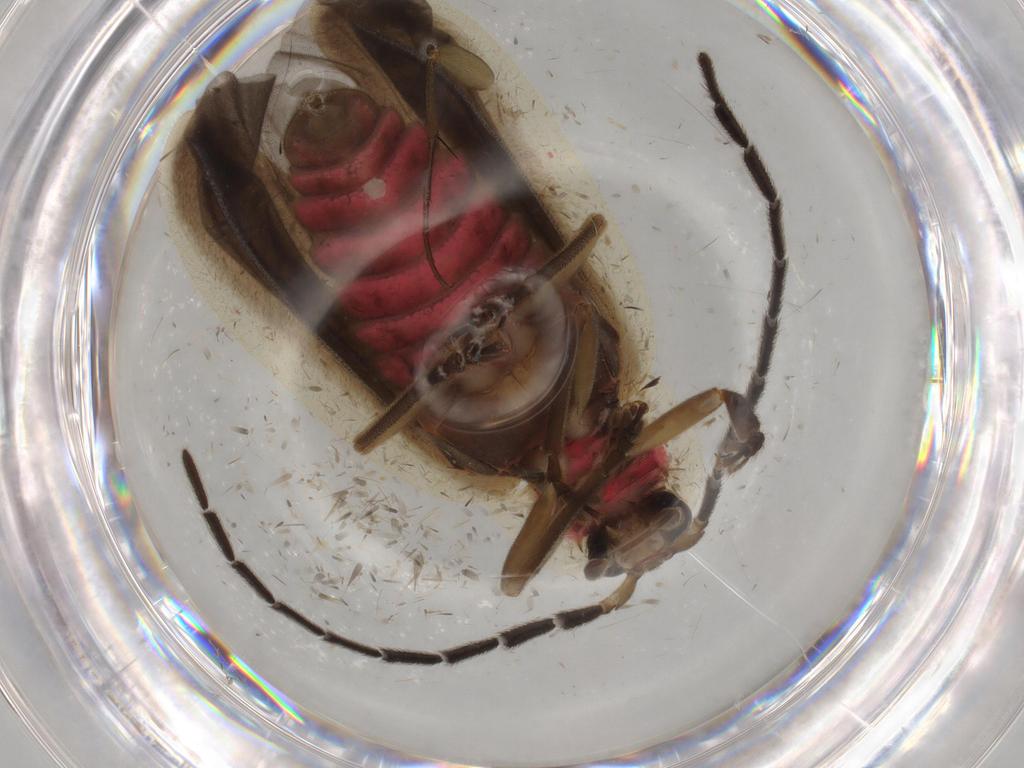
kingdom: Animalia
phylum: Arthropoda
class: Insecta
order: Coleoptera
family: Lampyridae
